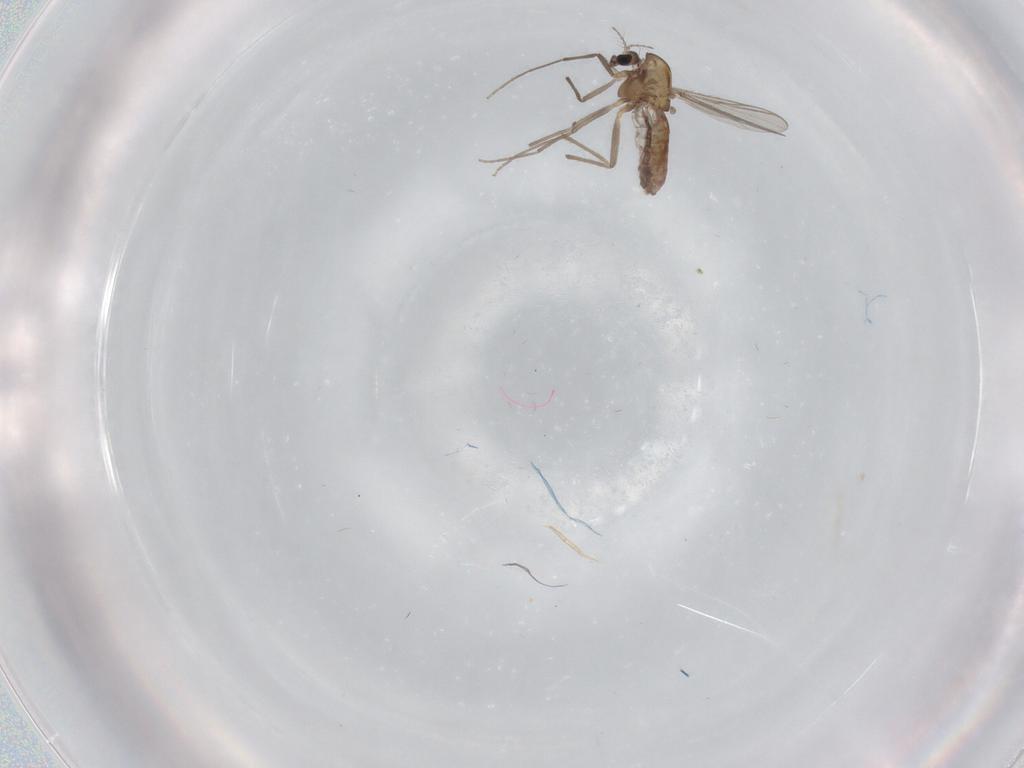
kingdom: Animalia
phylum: Arthropoda
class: Insecta
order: Diptera
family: Chironomidae
